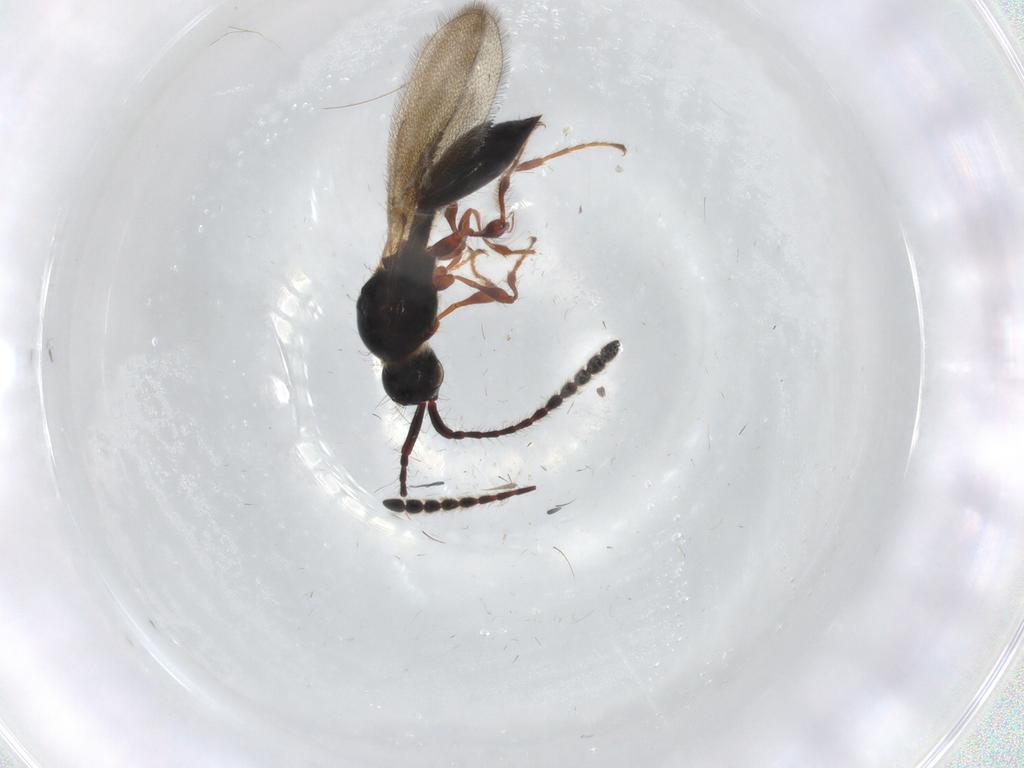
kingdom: Animalia
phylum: Arthropoda
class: Insecta
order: Hymenoptera
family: Diapriidae
